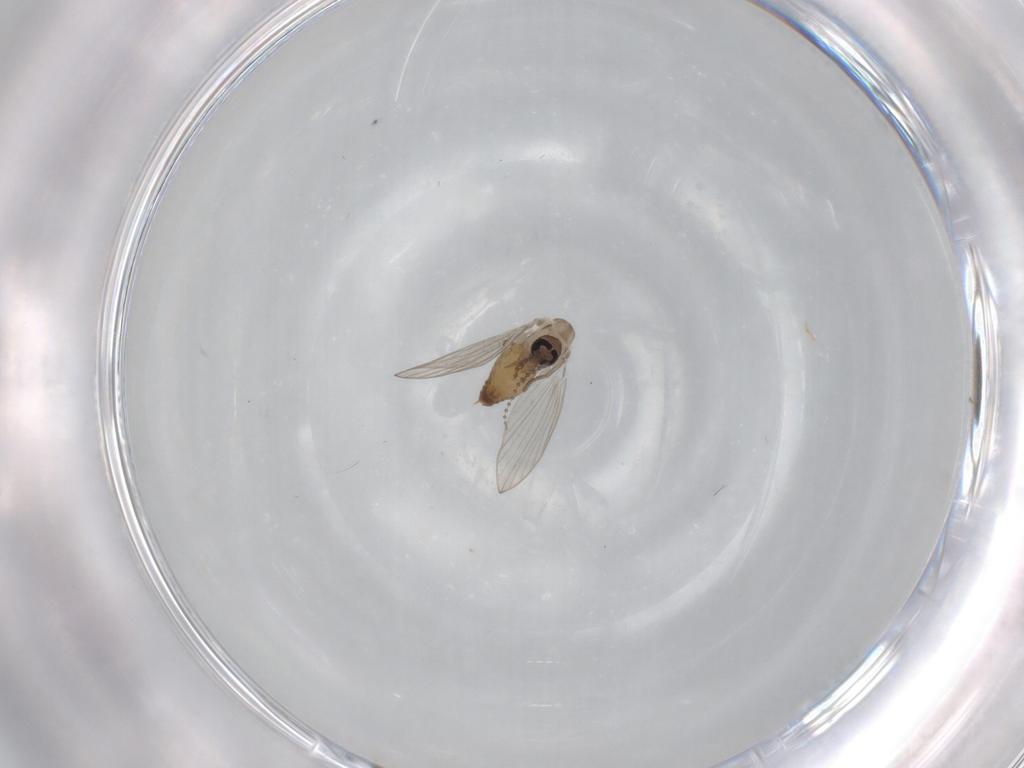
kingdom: Animalia
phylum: Arthropoda
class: Insecta
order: Diptera
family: Psychodidae
